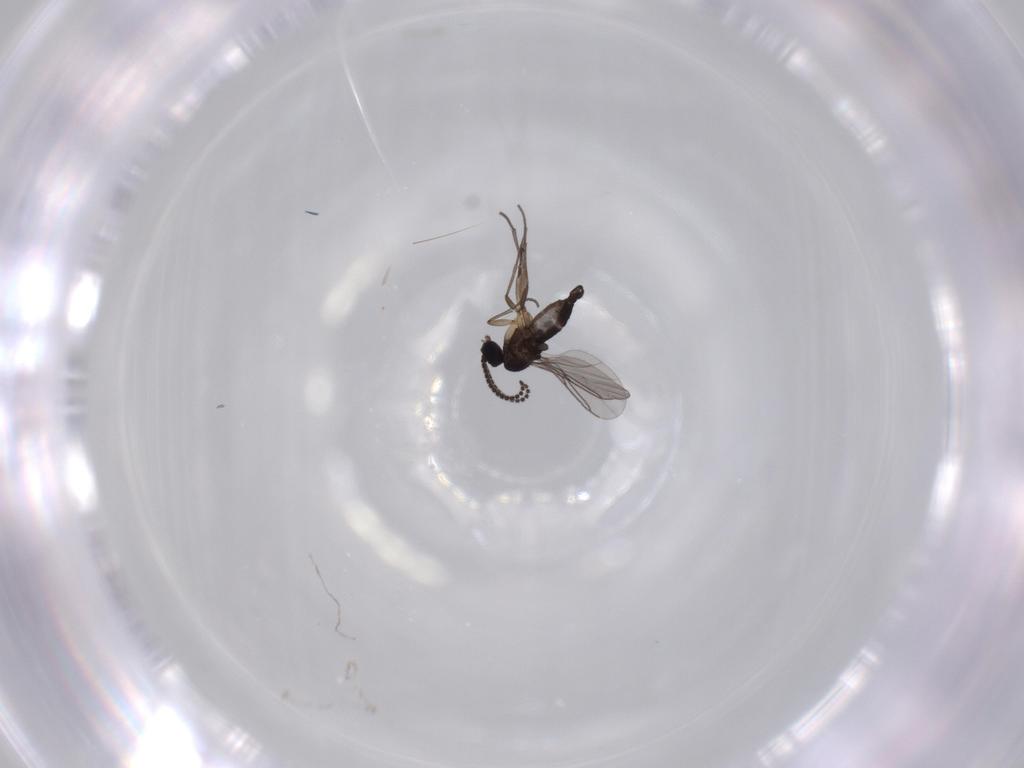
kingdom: Animalia
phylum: Arthropoda
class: Insecta
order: Diptera
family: Sciaridae
